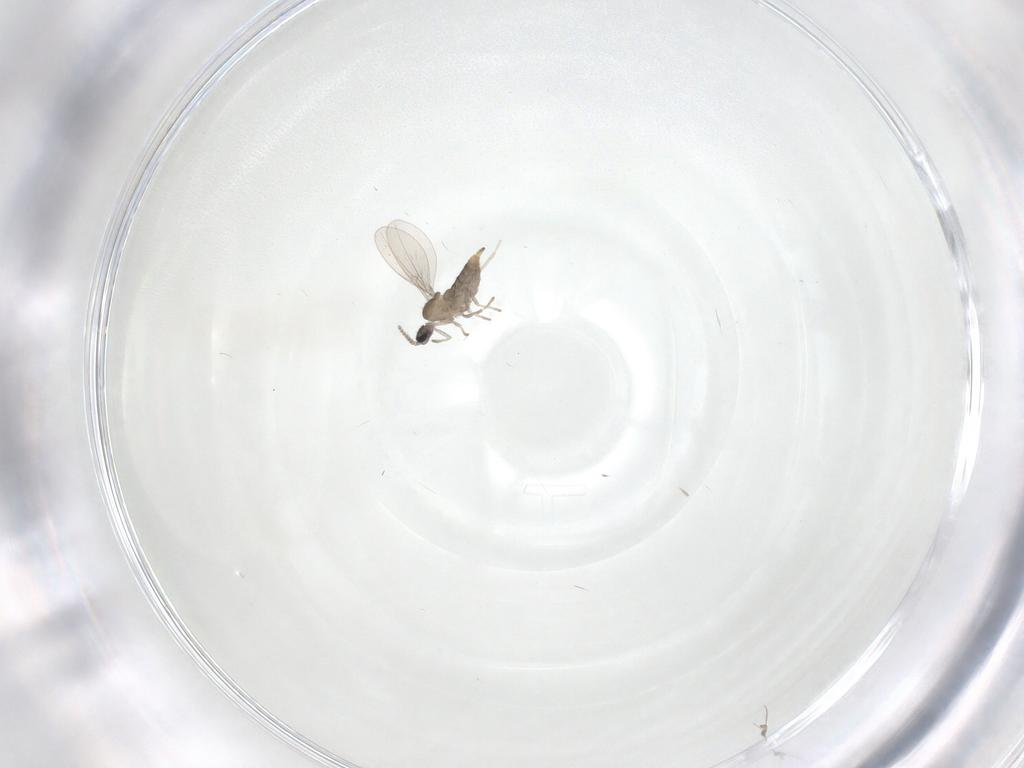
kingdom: Animalia
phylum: Arthropoda
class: Insecta
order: Diptera
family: Cecidomyiidae
